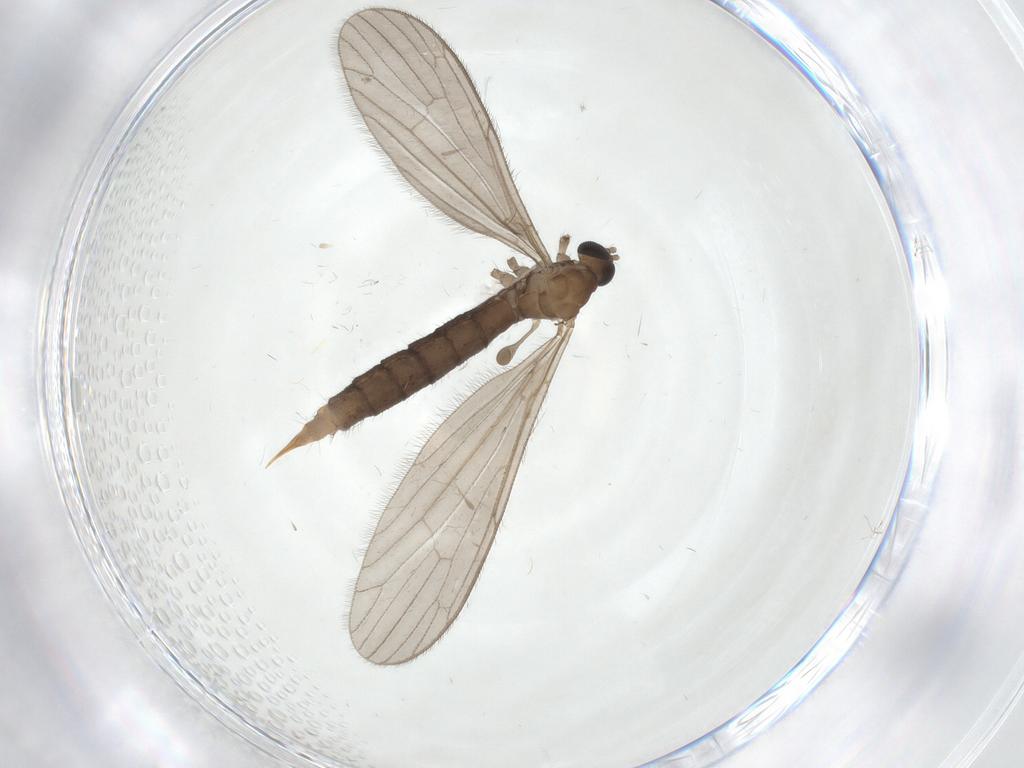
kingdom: Animalia
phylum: Arthropoda
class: Insecta
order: Diptera
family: Limoniidae
